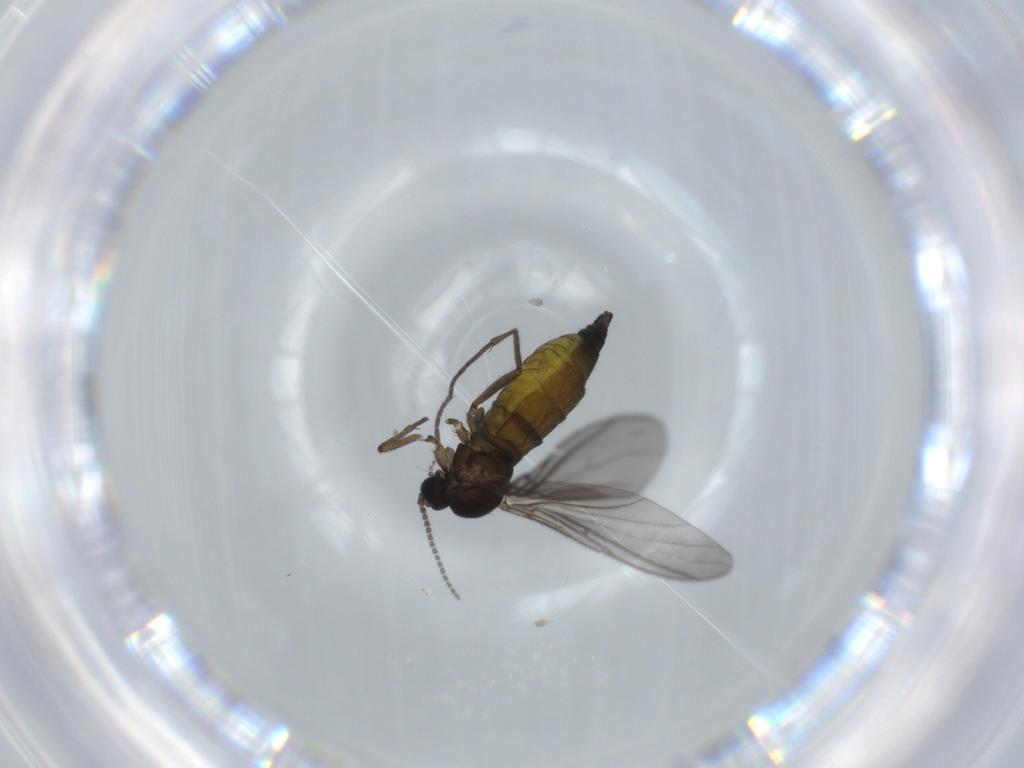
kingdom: Animalia
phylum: Arthropoda
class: Insecta
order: Diptera
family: Sciaridae
